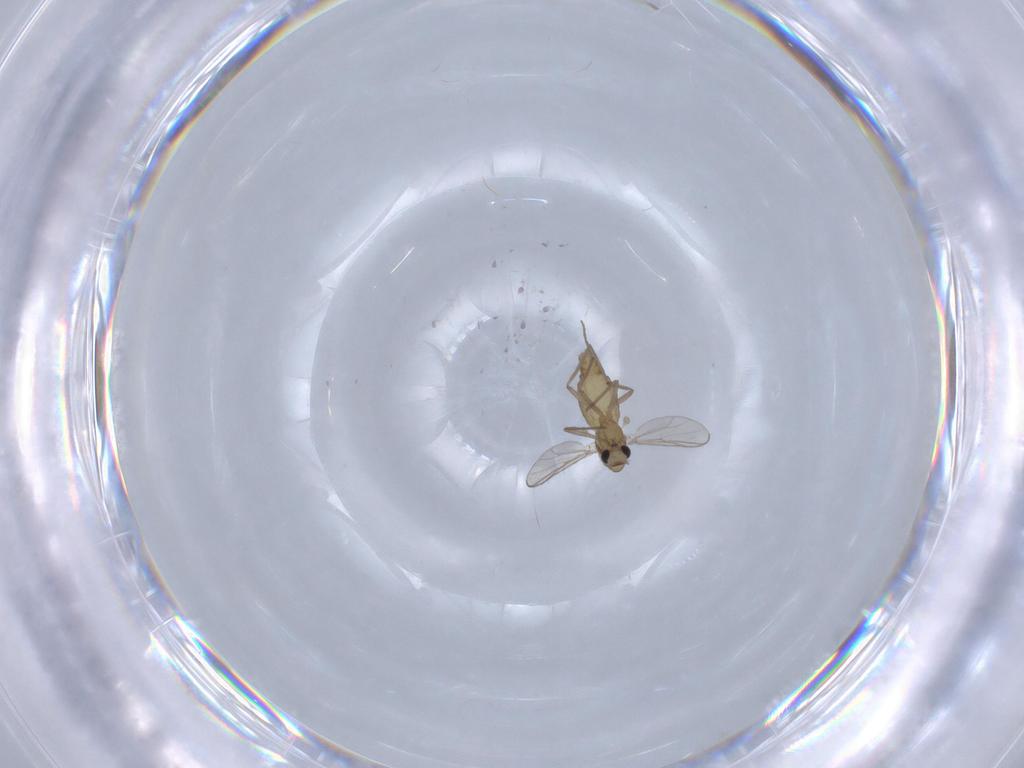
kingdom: Animalia
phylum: Arthropoda
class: Insecta
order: Diptera
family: Chironomidae
